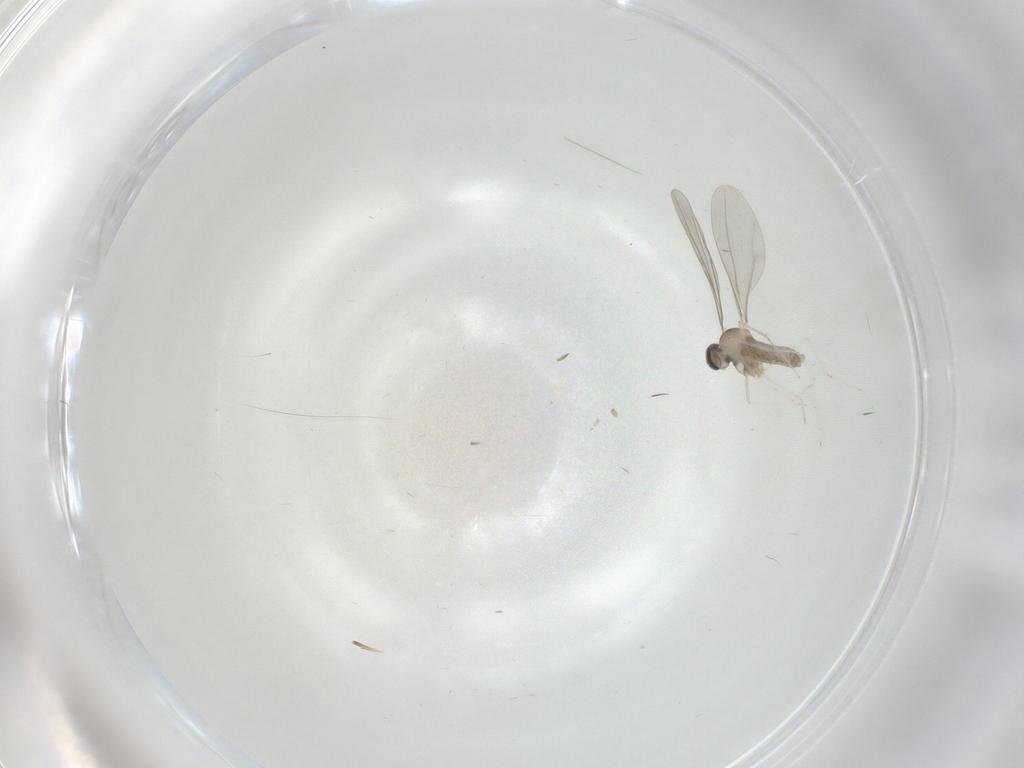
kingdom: Animalia
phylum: Arthropoda
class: Insecta
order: Diptera
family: Cecidomyiidae
